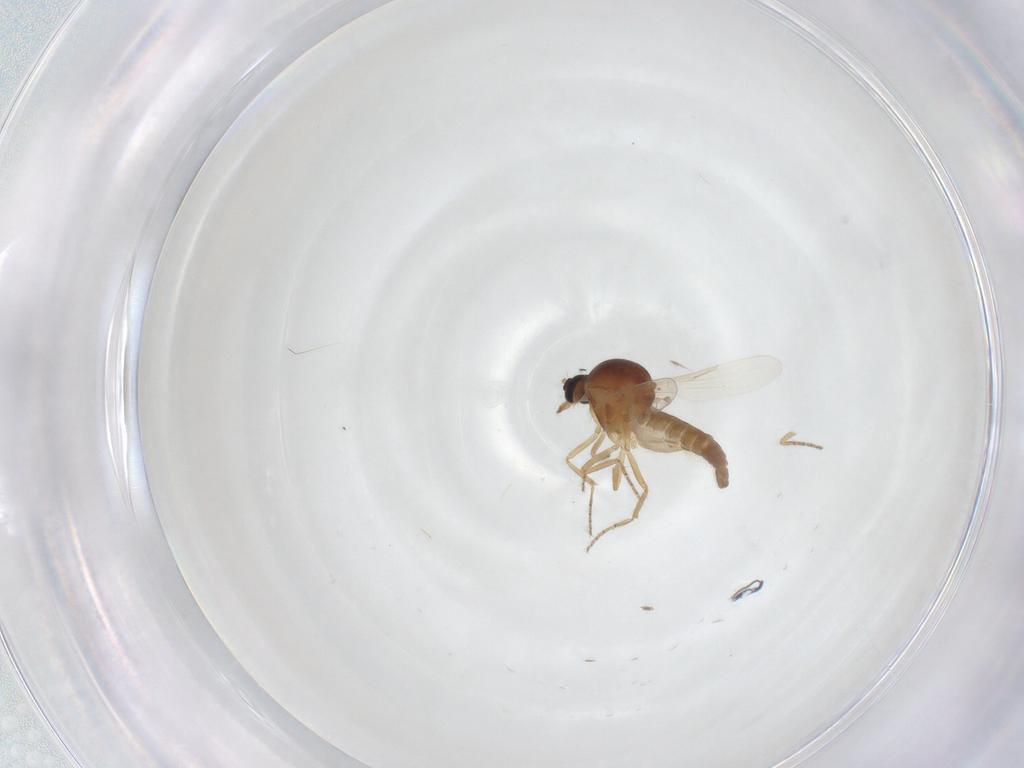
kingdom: Animalia
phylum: Arthropoda
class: Insecta
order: Diptera
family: Ceratopogonidae
